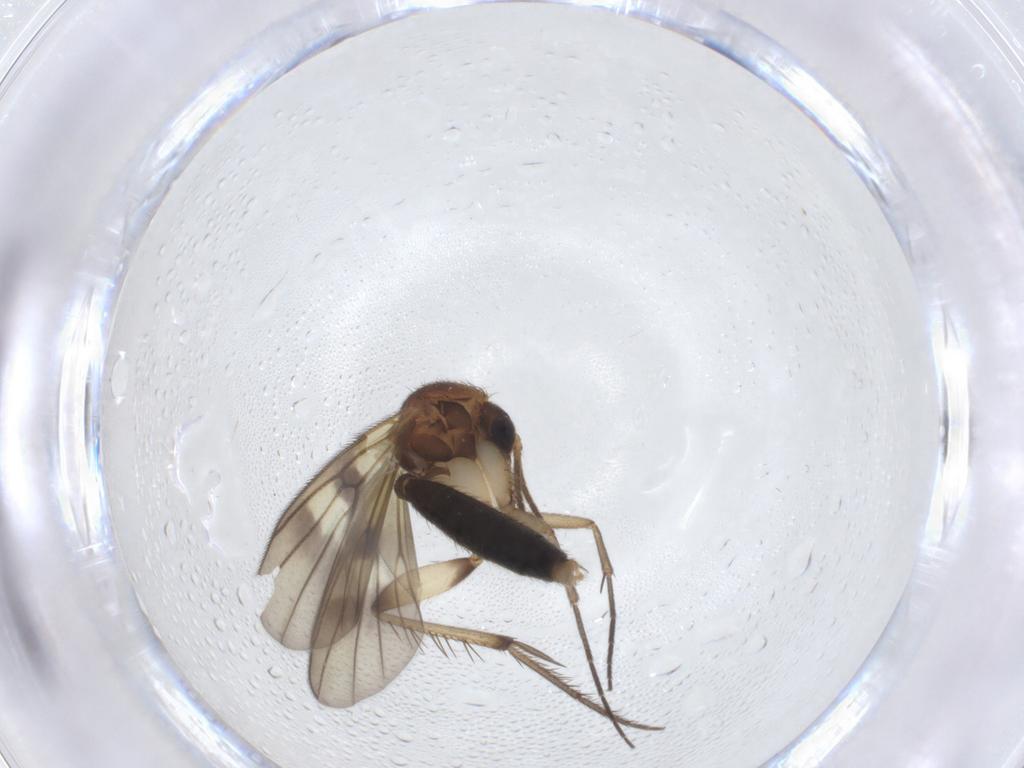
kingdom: Animalia
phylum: Arthropoda
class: Insecta
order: Diptera
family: Mycetophilidae
